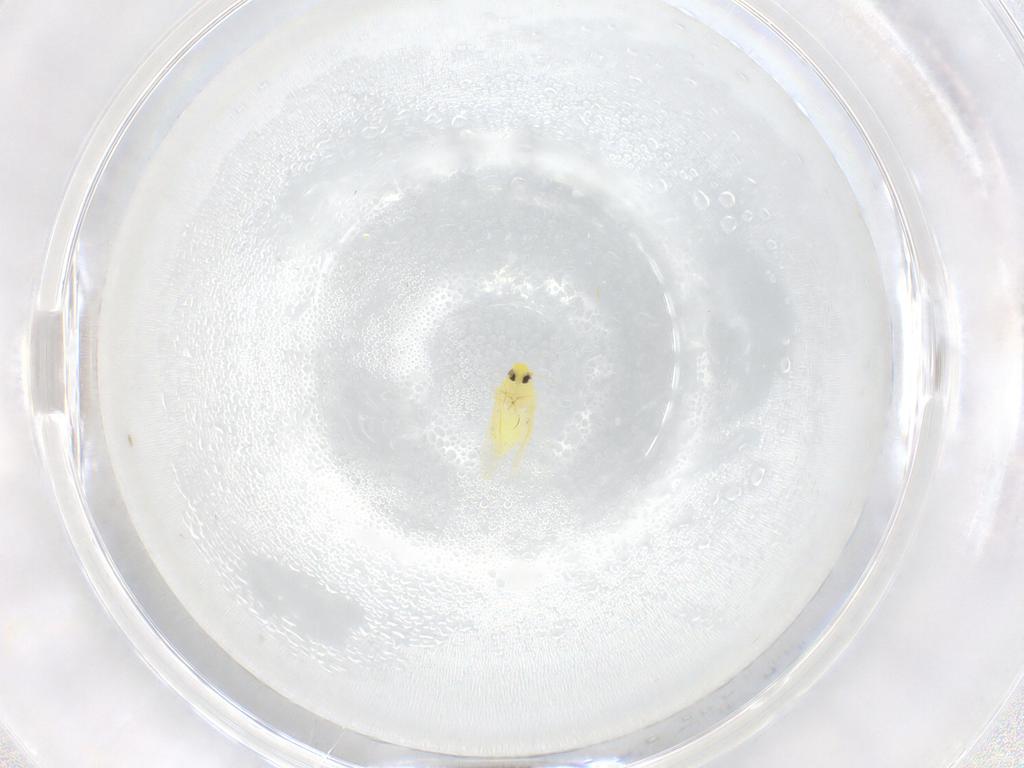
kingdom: Animalia
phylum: Arthropoda
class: Insecta
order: Hemiptera
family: Aleyrodidae
